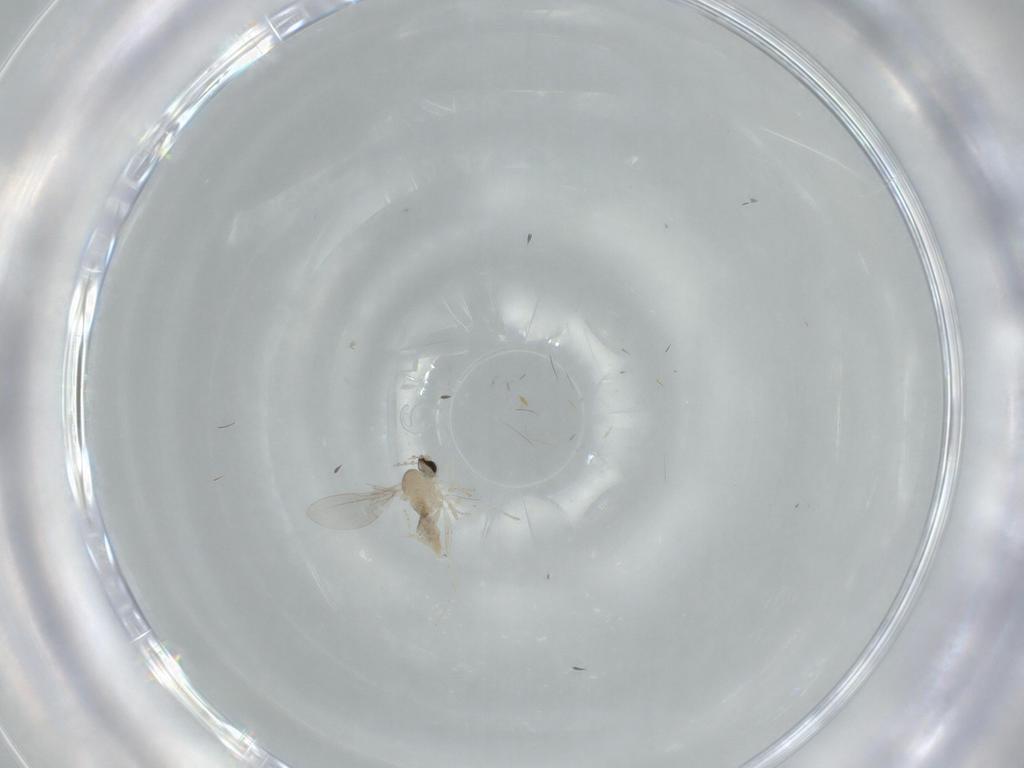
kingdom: Animalia
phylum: Arthropoda
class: Insecta
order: Diptera
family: Cecidomyiidae
